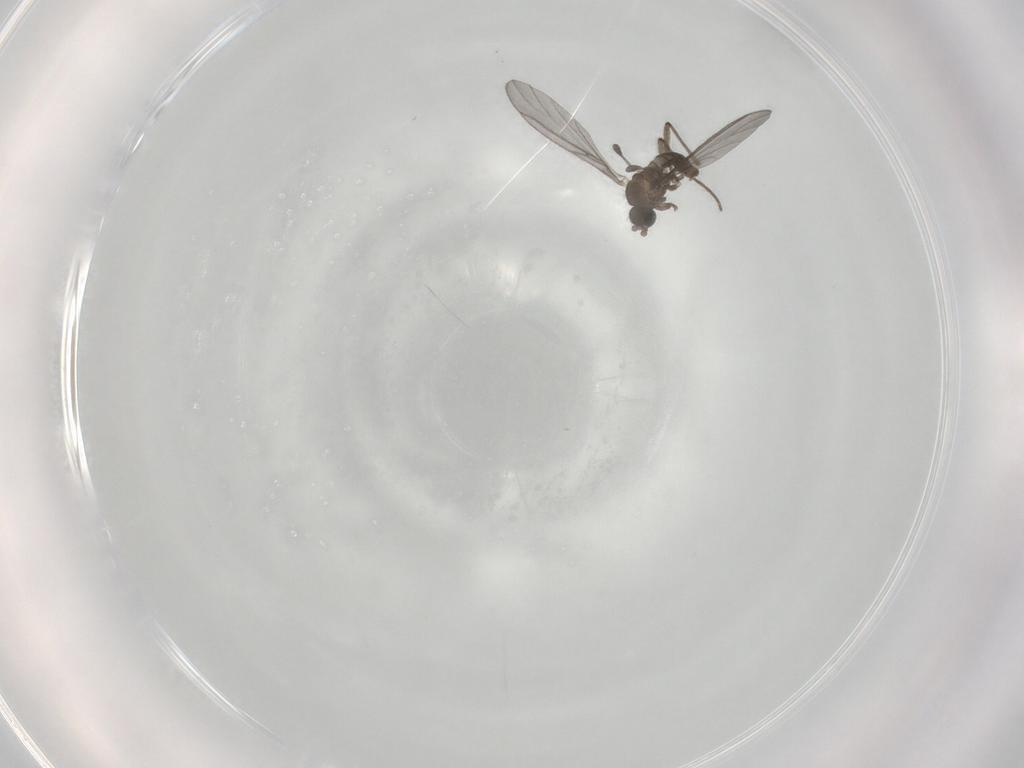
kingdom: Animalia
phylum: Arthropoda
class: Insecta
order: Diptera
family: Sciaridae
